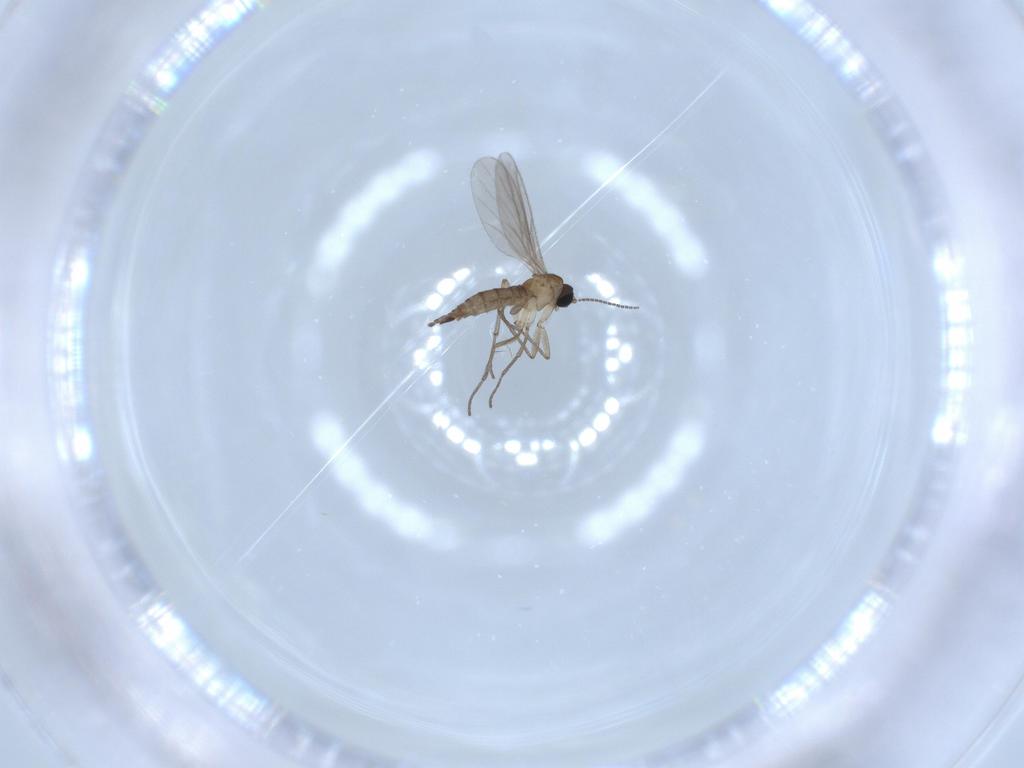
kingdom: Animalia
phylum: Arthropoda
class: Insecta
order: Diptera
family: Sciaridae
